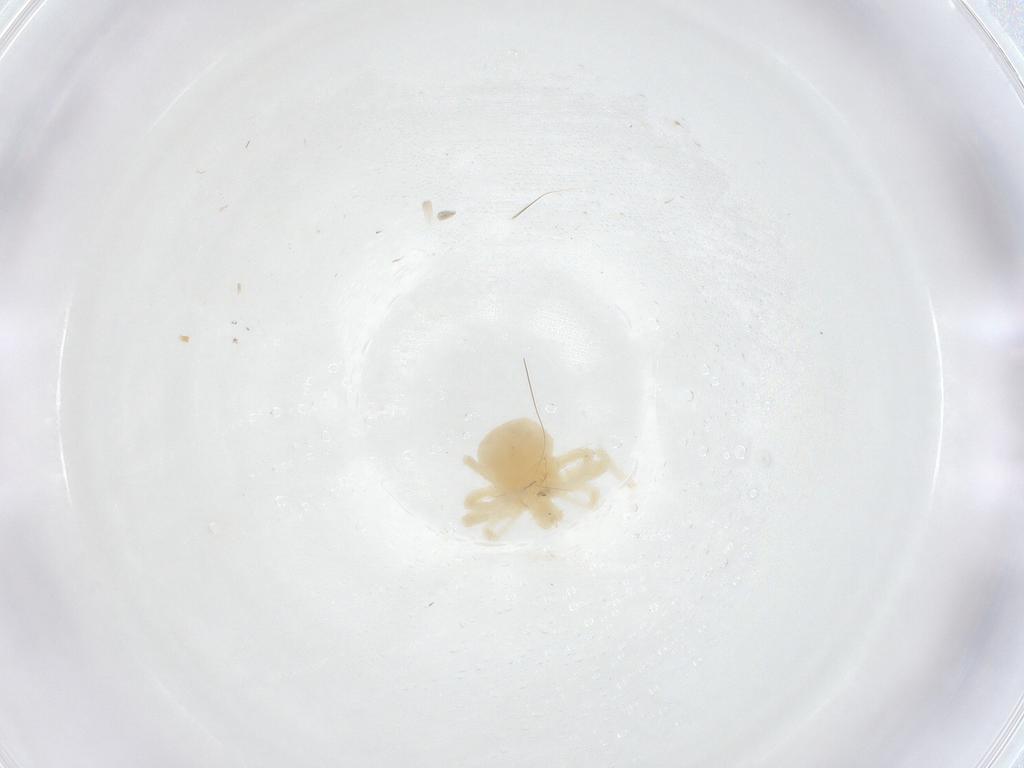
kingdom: Animalia
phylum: Arthropoda
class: Arachnida
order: Trombidiformes
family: Anystidae
